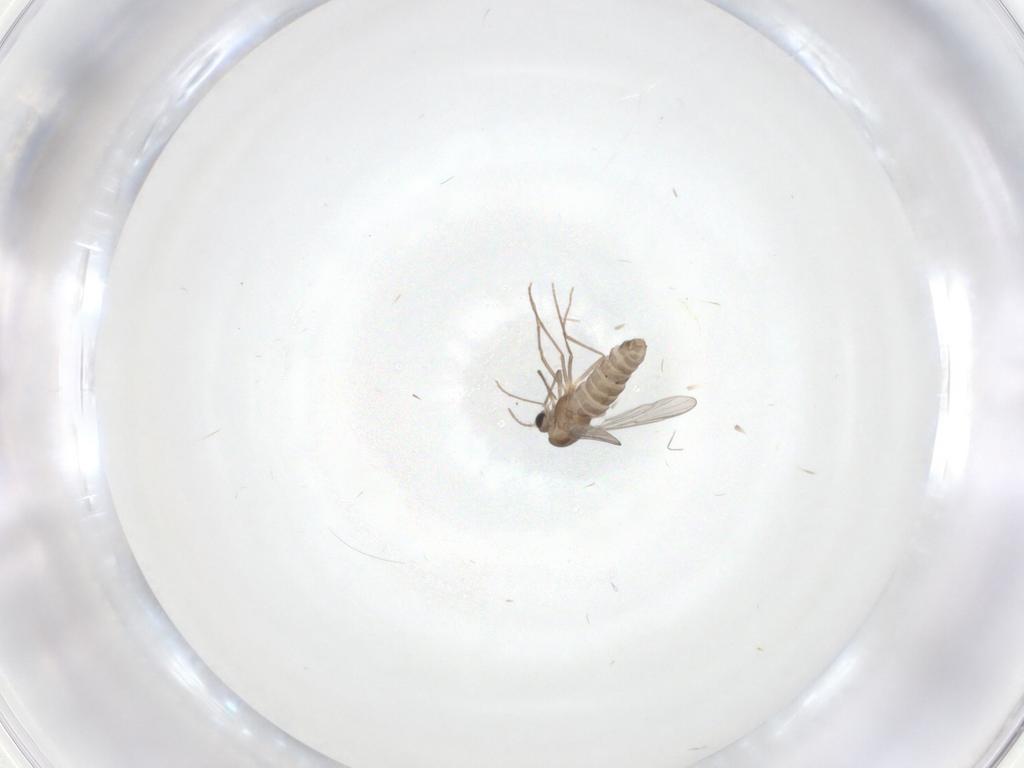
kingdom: Animalia
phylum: Arthropoda
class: Insecta
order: Diptera
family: Chironomidae
